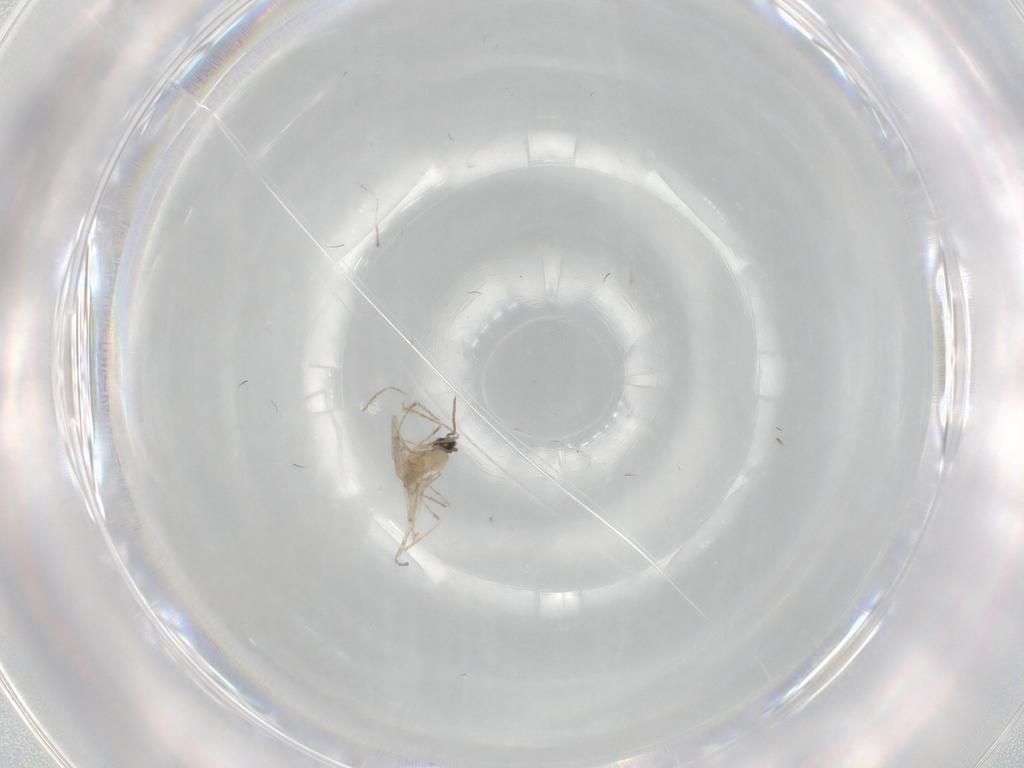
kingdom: Animalia
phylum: Arthropoda
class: Insecta
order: Diptera
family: Cecidomyiidae
